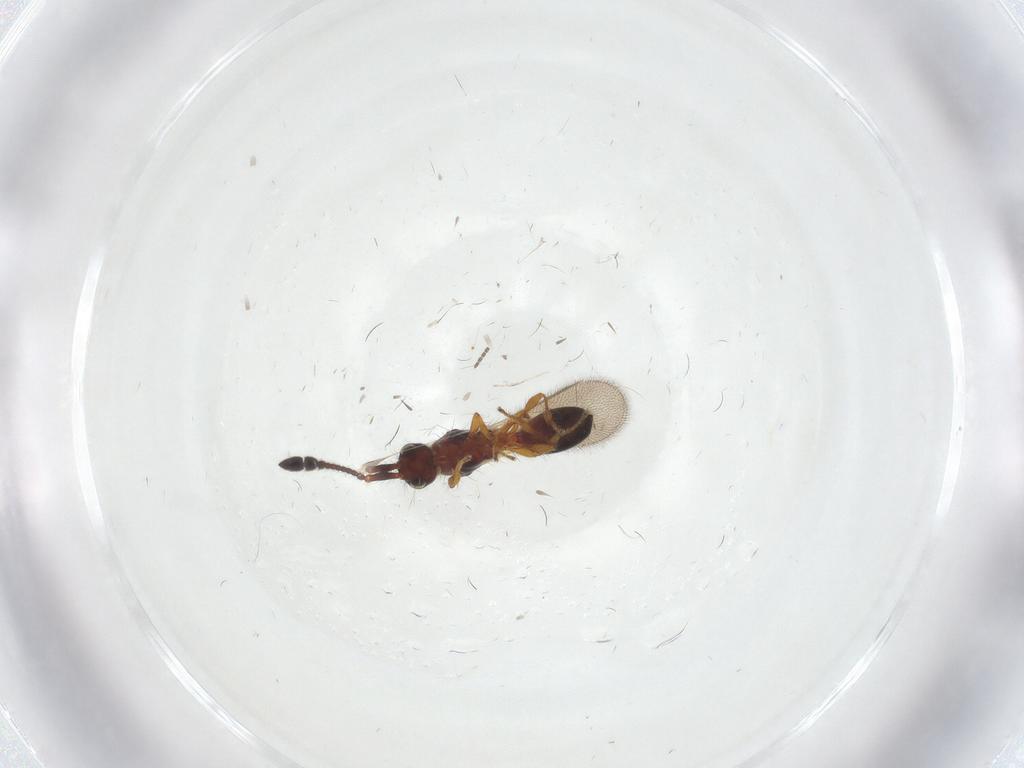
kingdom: Animalia
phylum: Arthropoda
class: Insecta
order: Hymenoptera
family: Diapriidae
